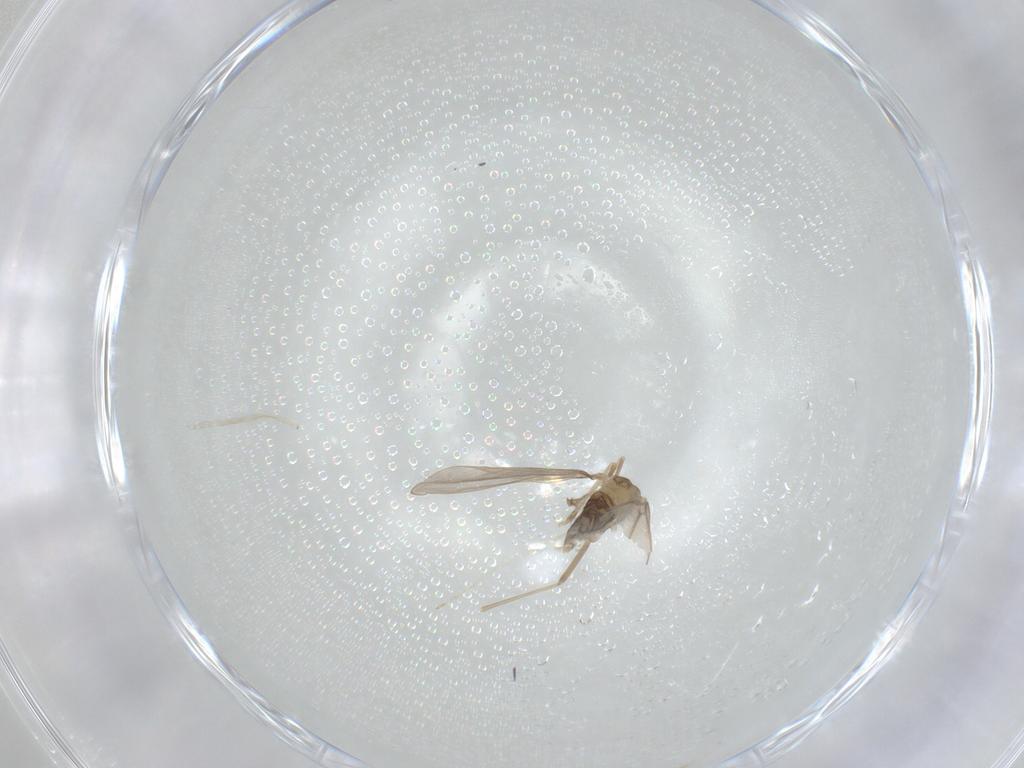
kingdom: Animalia
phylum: Arthropoda
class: Insecta
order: Diptera
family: Cecidomyiidae
